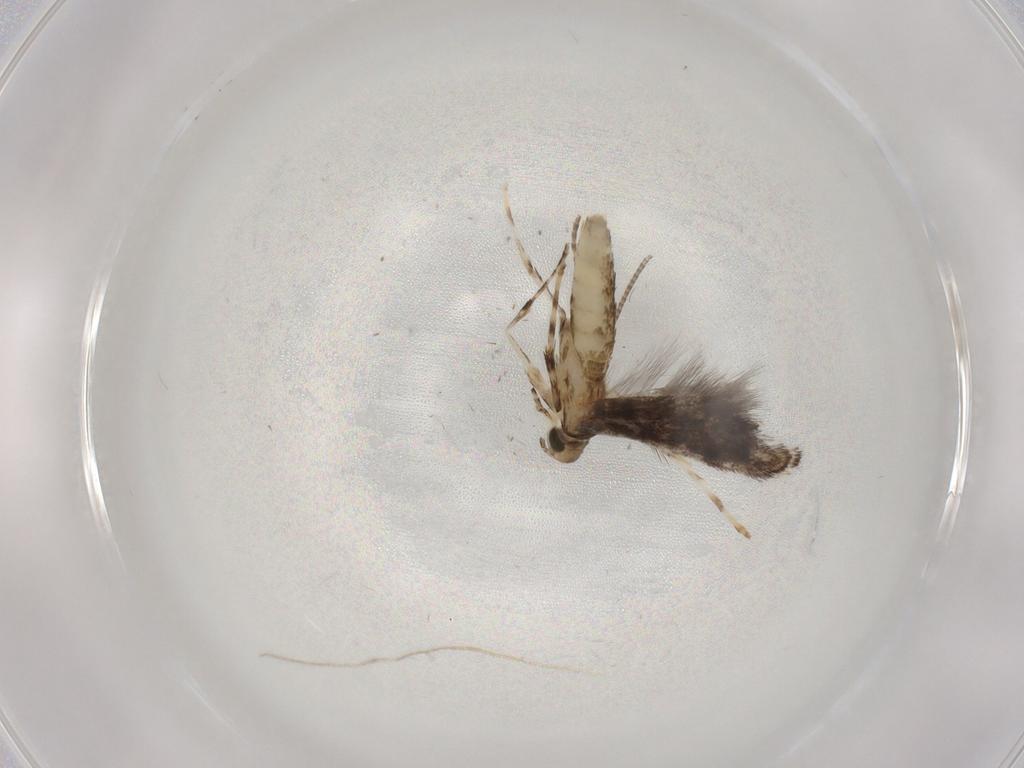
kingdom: Animalia
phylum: Arthropoda
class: Insecta
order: Lepidoptera
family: Gracillariidae
